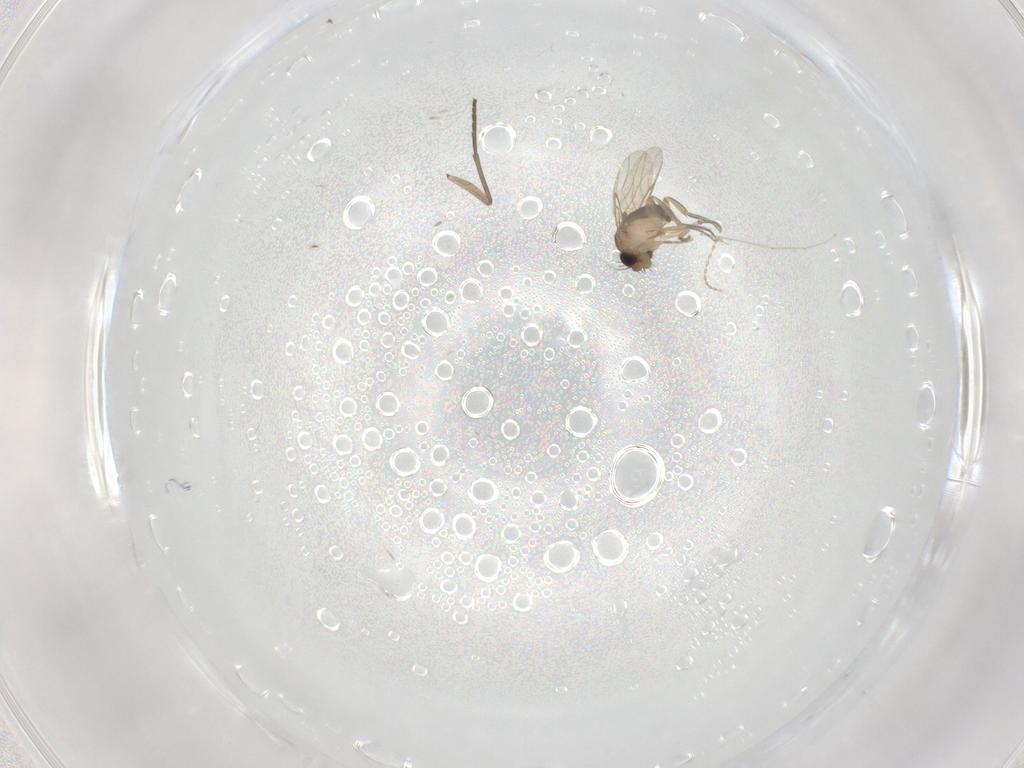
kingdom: Animalia
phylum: Arthropoda
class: Insecta
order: Diptera
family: Phoridae
